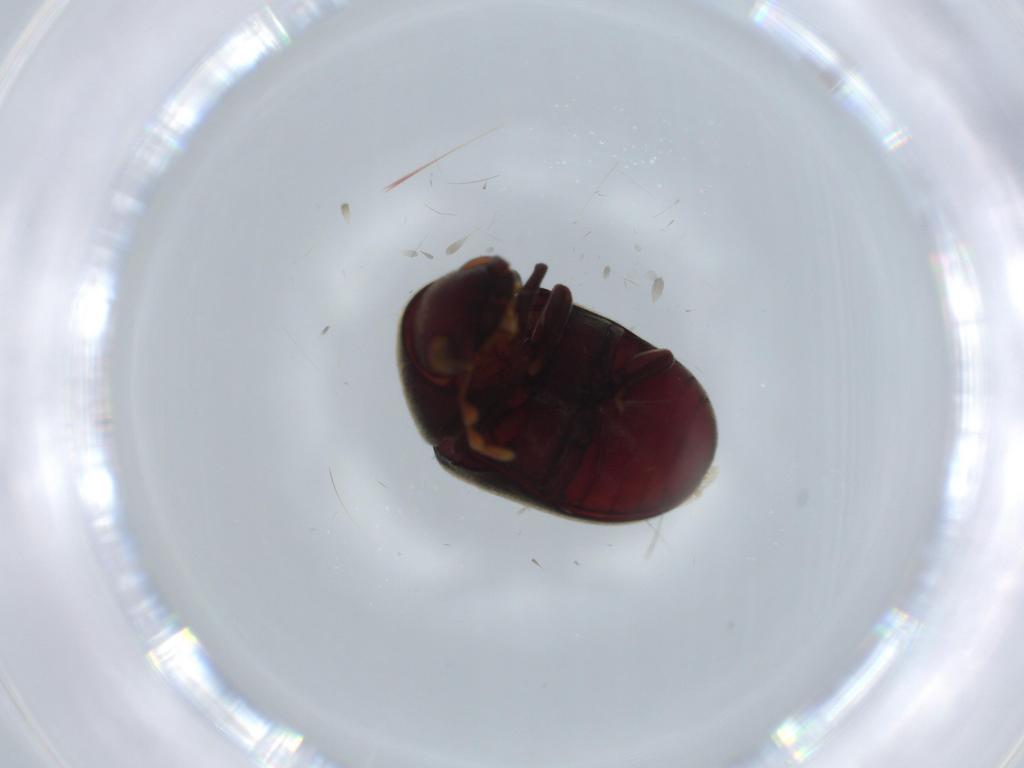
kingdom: Animalia
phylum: Arthropoda
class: Insecta
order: Coleoptera
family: Ptinidae
